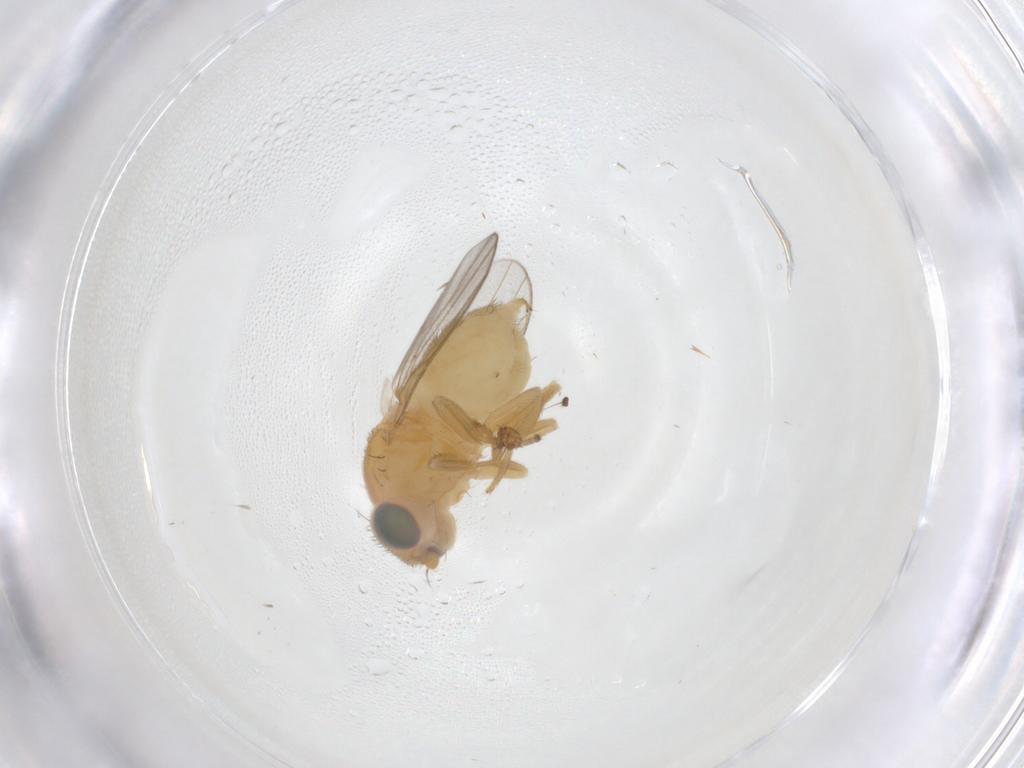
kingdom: Animalia
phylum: Arthropoda
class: Insecta
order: Diptera
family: Chloropidae
